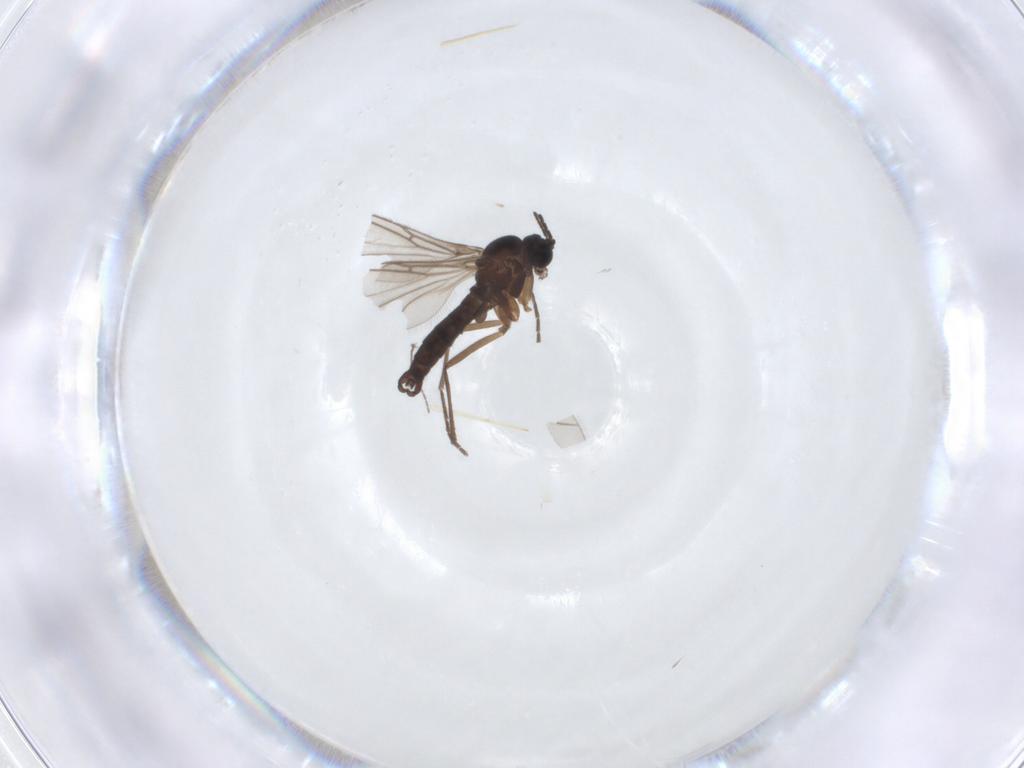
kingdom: Animalia
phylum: Arthropoda
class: Insecta
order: Diptera
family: Sciaridae
